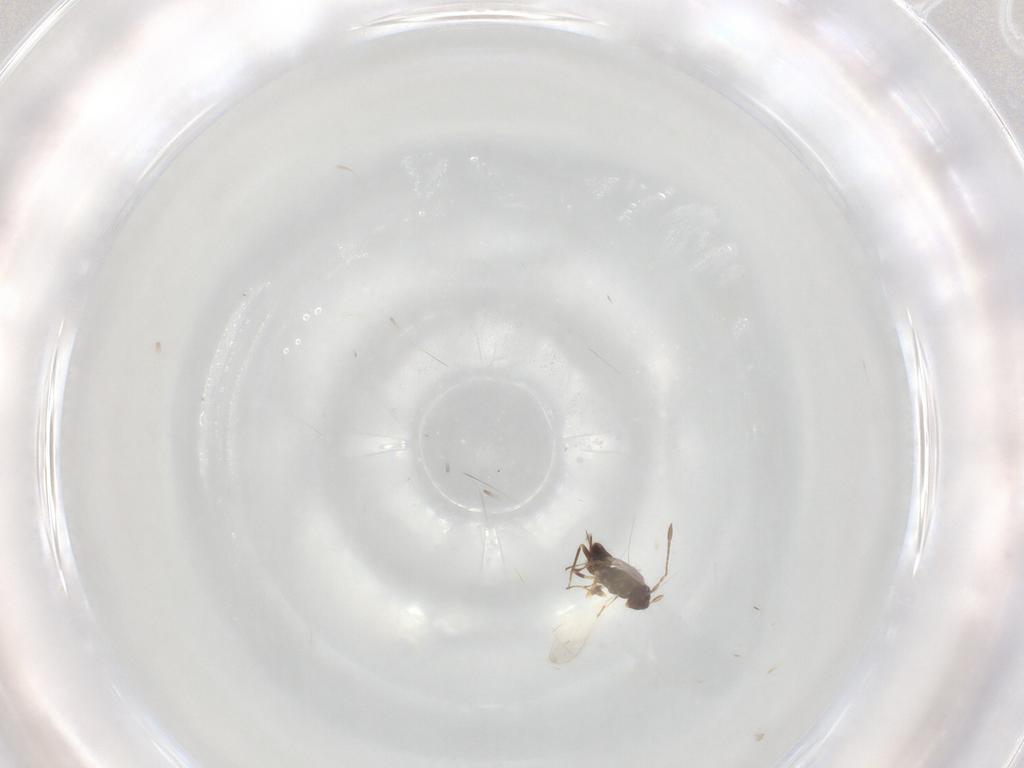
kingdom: Animalia
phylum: Arthropoda
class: Insecta
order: Hymenoptera
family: Mymaridae
